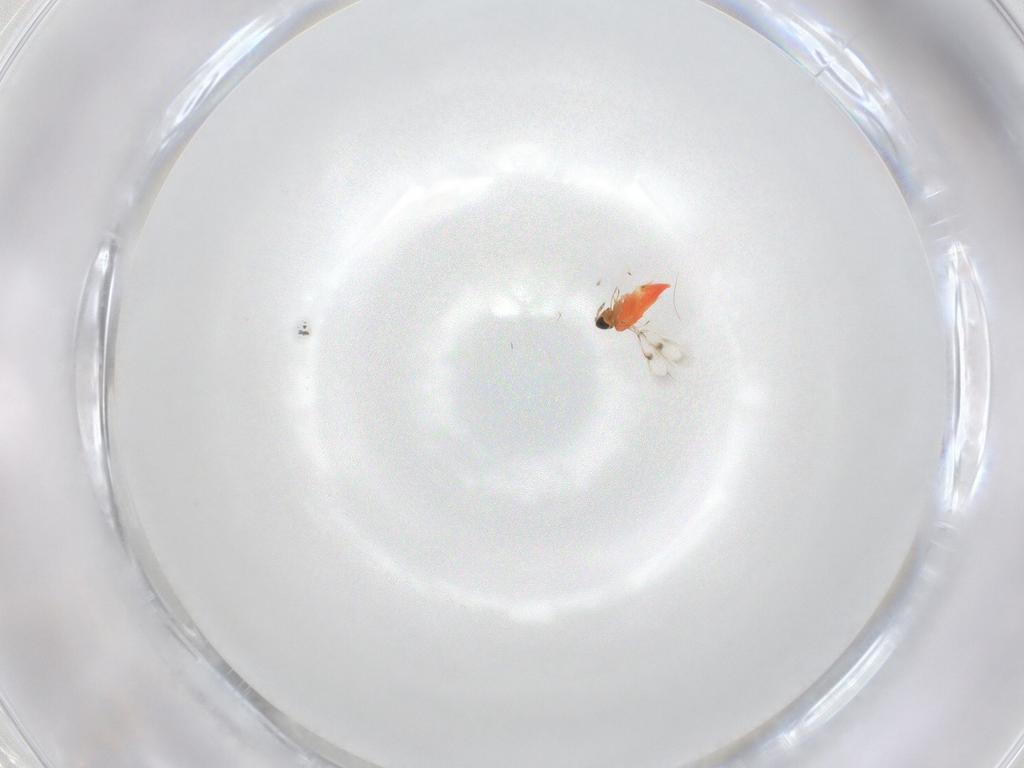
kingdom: Animalia
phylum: Arthropoda
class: Insecta
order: Hymenoptera
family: Trichogrammatidae
